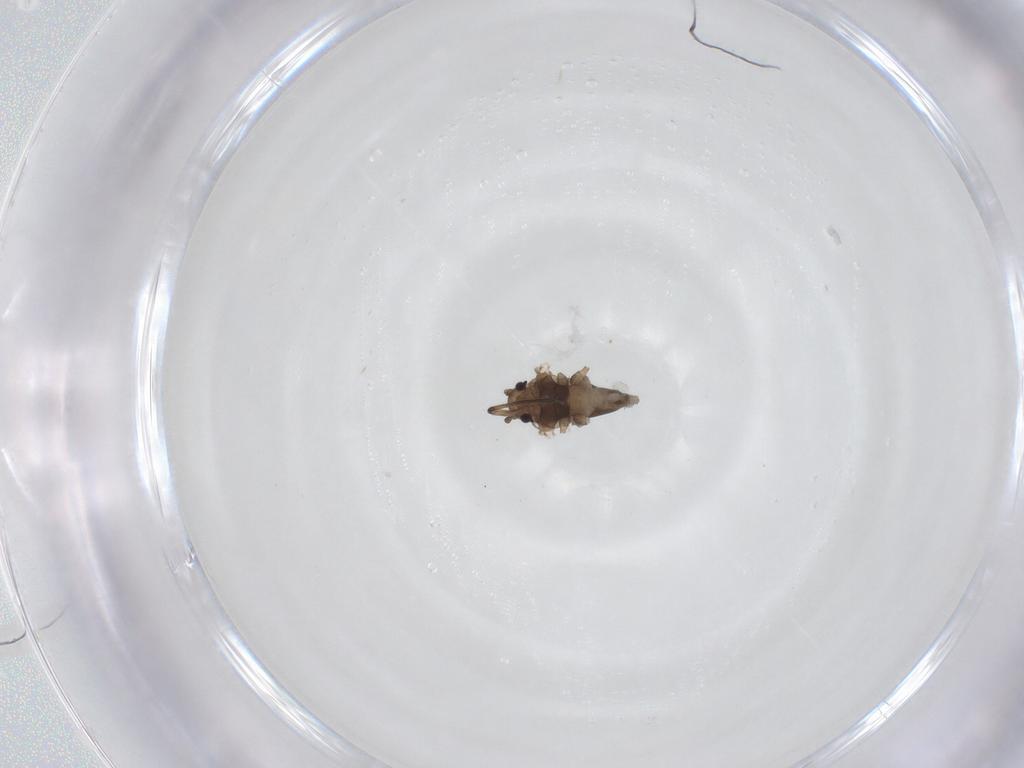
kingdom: Animalia
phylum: Arthropoda
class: Insecta
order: Hemiptera
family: Aphididae
